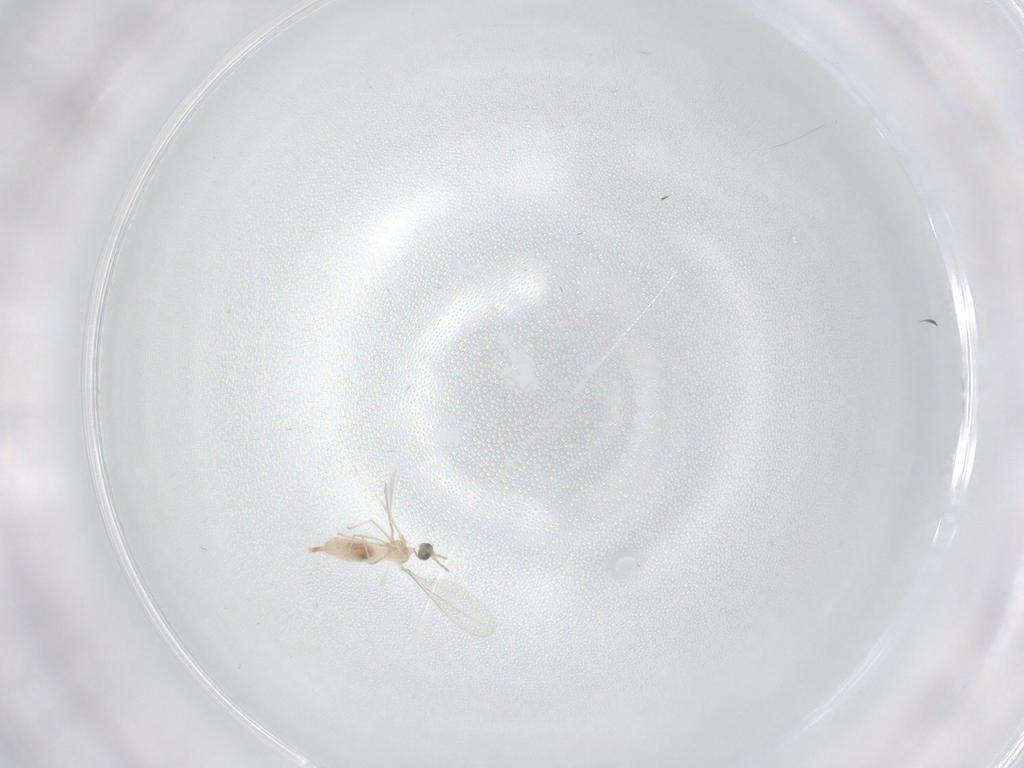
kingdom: Animalia
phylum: Arthropoda
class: Insecta
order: Diptera
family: Cecidomyiidae
